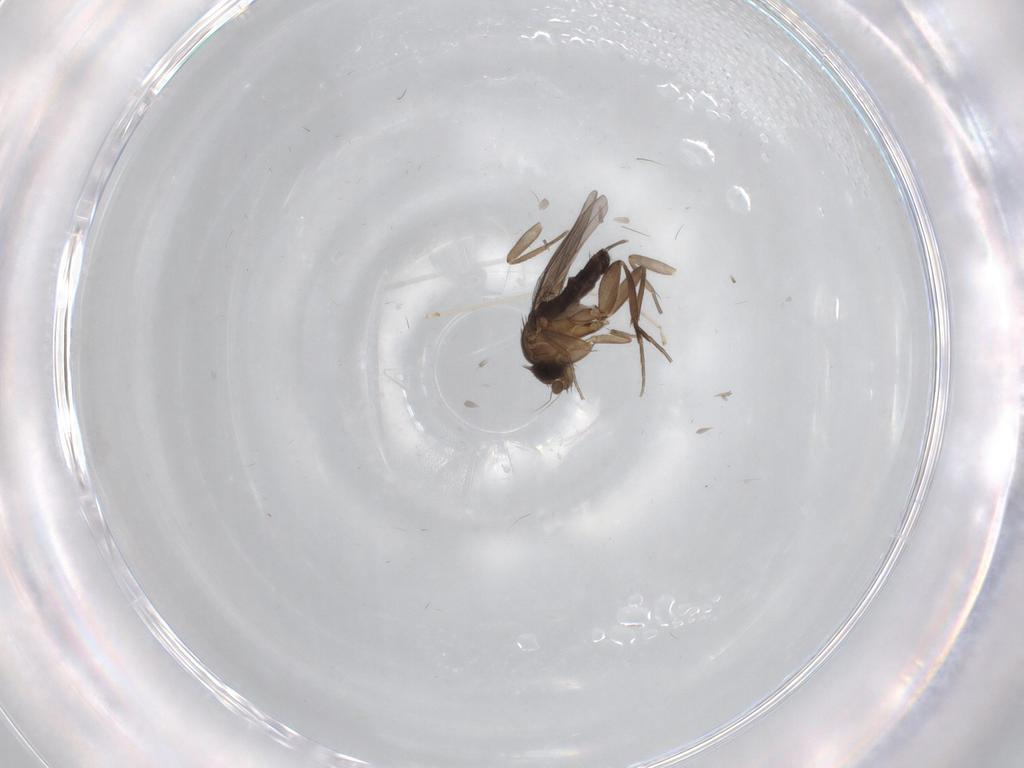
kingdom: Animalia
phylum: Arthropoda
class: Insecta
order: Diptera
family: Phoridae
